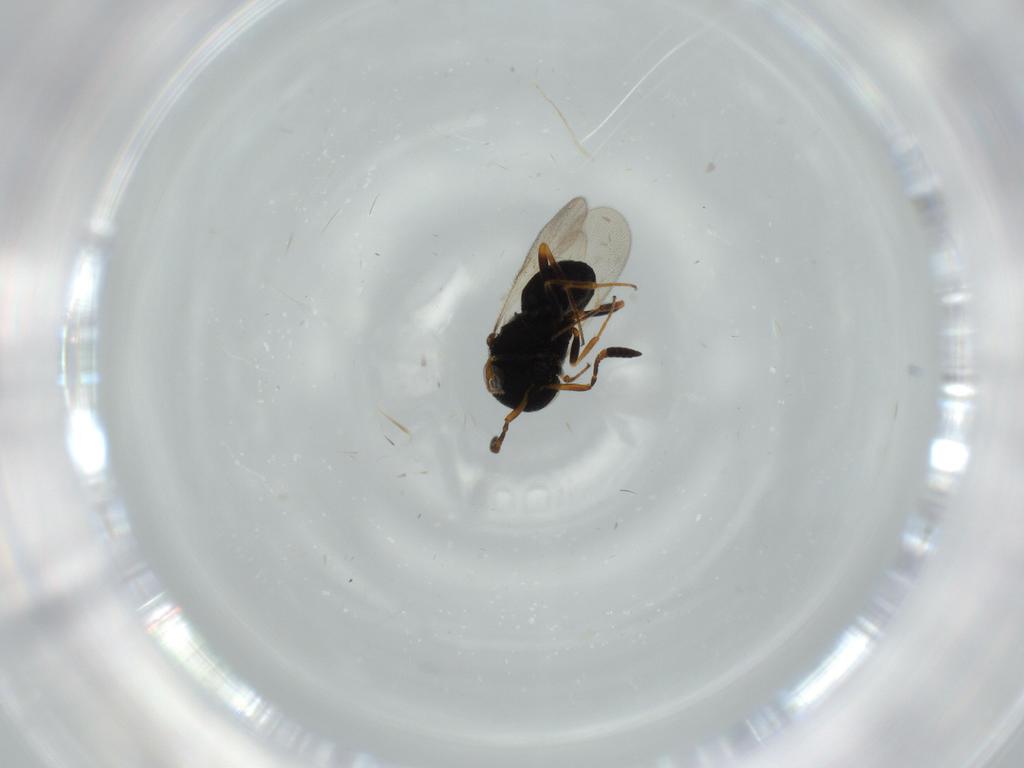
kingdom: Animalia
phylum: Arthropoda
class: Insecta
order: Hymenoptera
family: Scelionidae
